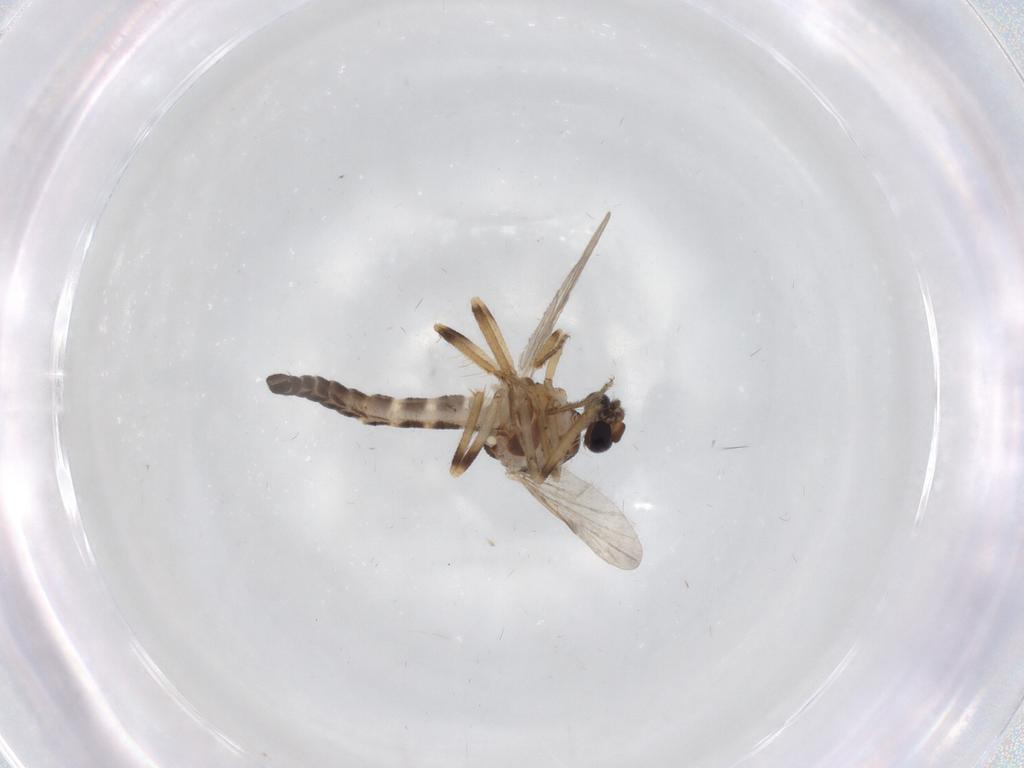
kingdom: Animalia
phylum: Arthropoda
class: Insecta
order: Diptera
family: Ceratopogonidae
